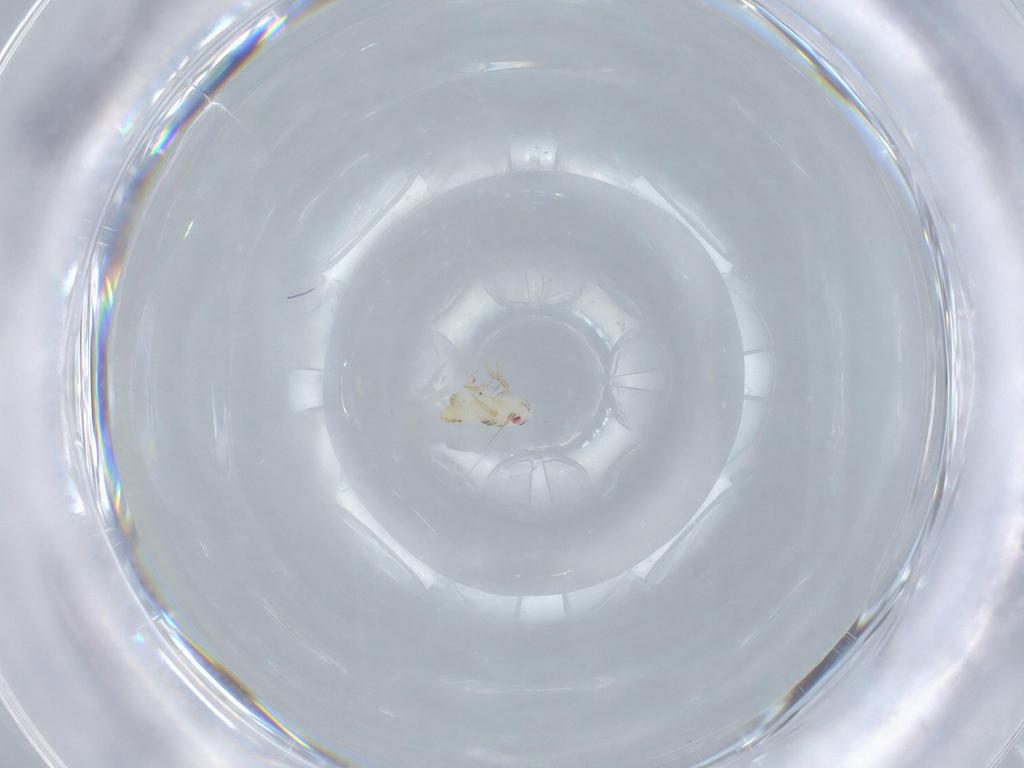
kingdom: Animalia
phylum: Arthropoda
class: Insecta
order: Hemiptera
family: Delphacidae
